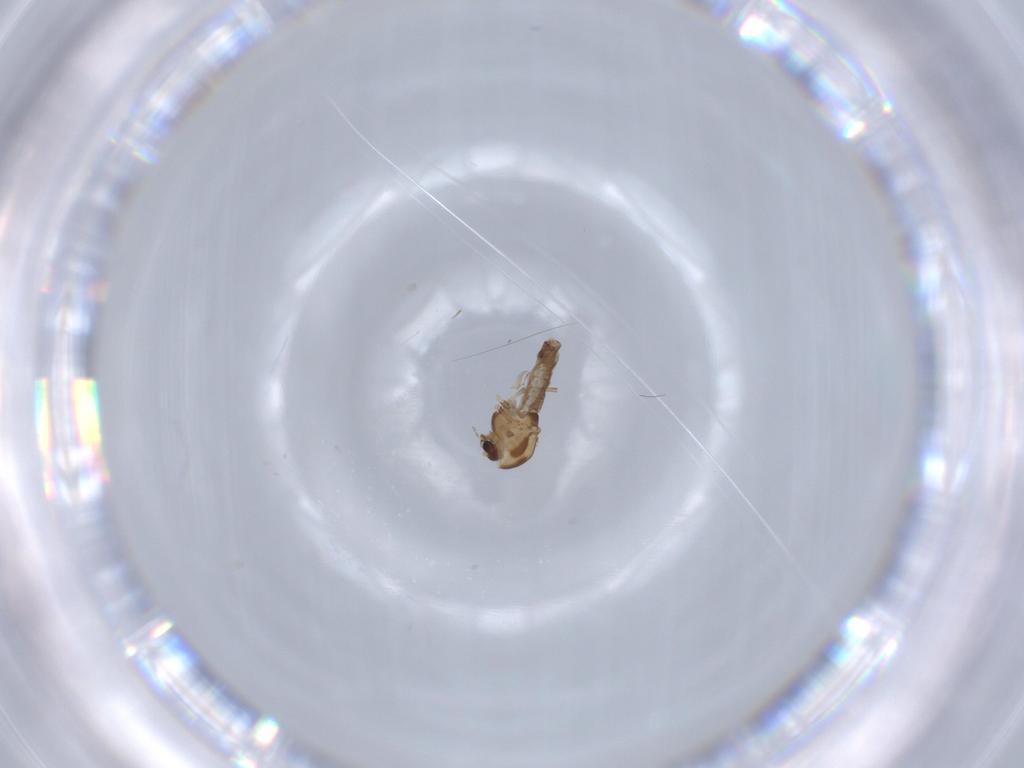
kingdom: Animalia
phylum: Arthropoda
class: Insecta
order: Diptera
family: Chironomidae
